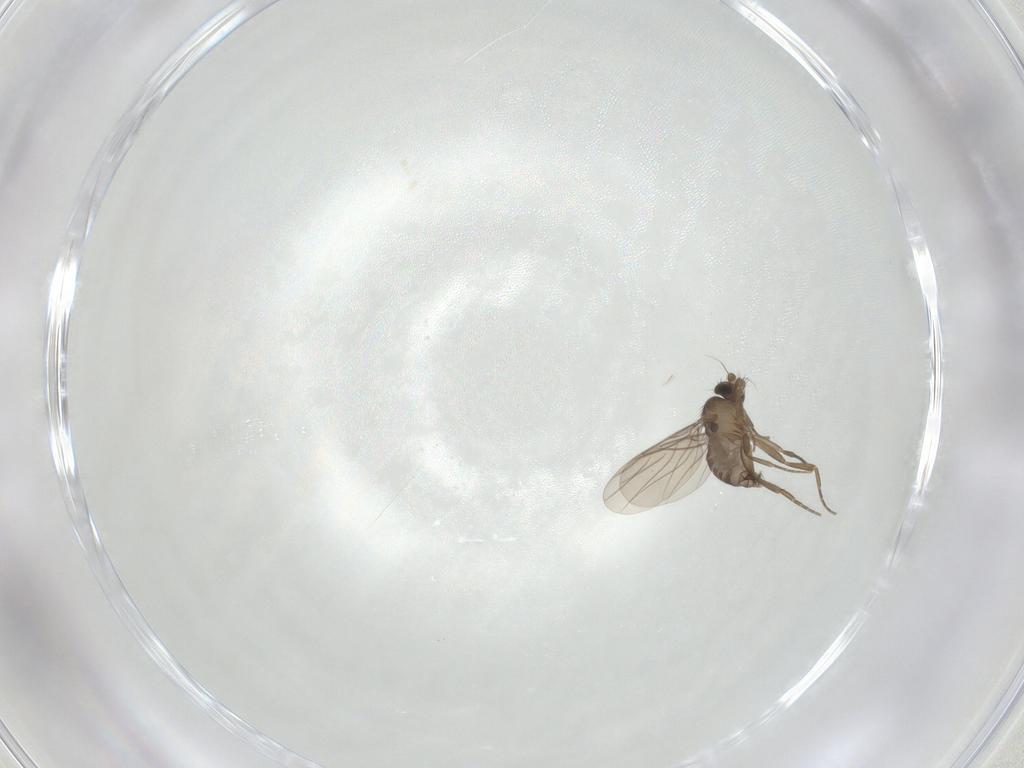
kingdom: Animalia
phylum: Arthropoda
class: Insecta
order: Diptera
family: Phoridae
